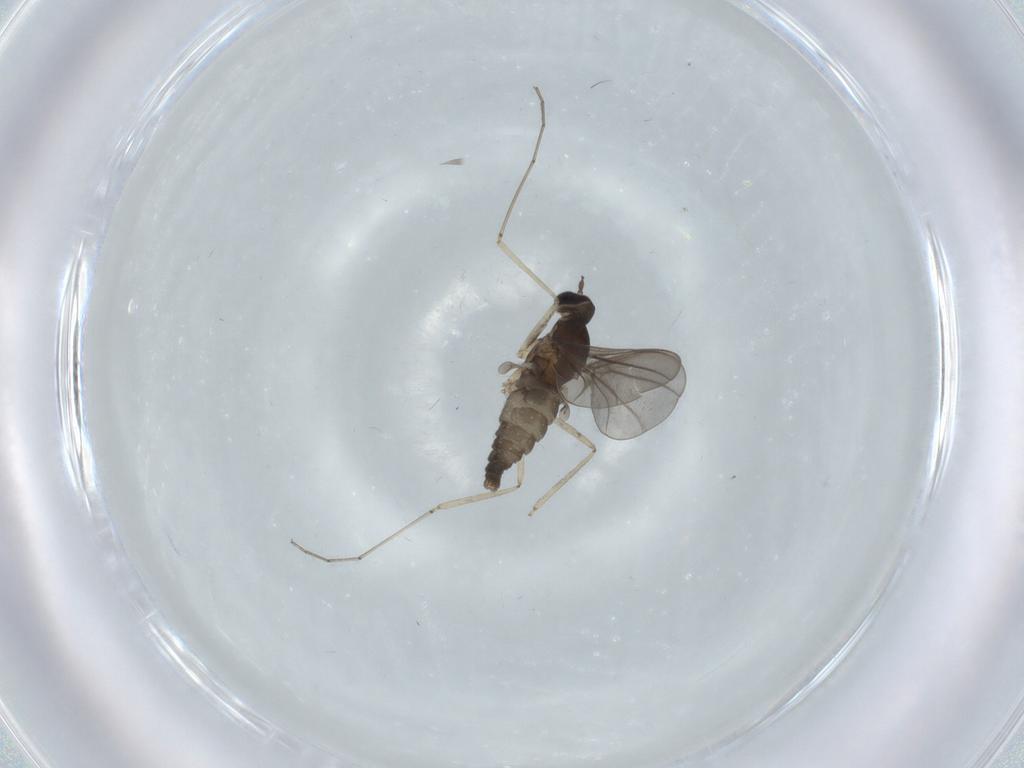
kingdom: Animalia
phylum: Arthropoda
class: Insecta
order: Diptera
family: Cecidomyiidae
